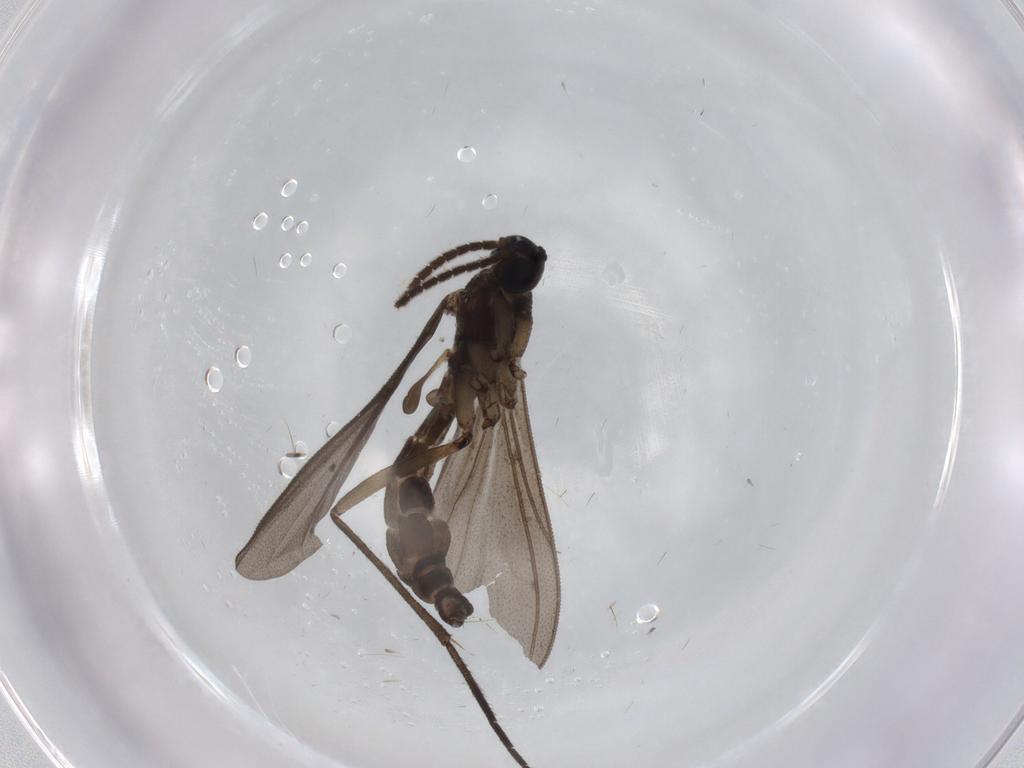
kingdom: Animalia
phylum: Arthropoda
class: Insecta
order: Diptera
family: Sciaridae
